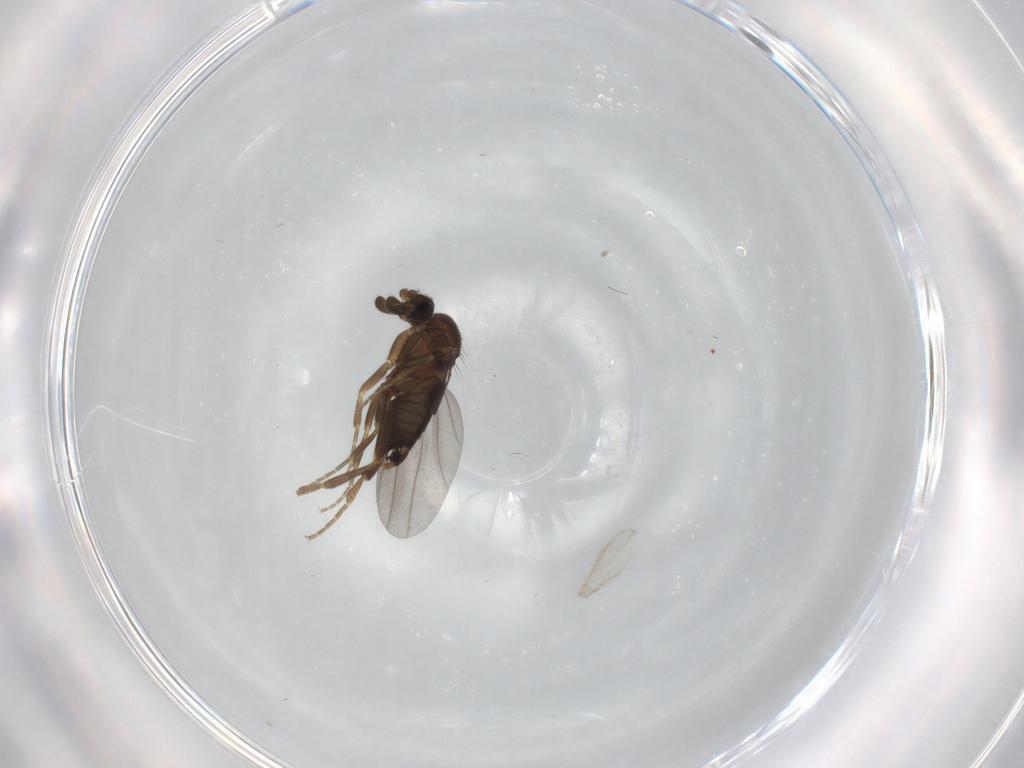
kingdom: Animalia
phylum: Arthropoda
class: Insecta
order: Diptera
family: Phoridae
